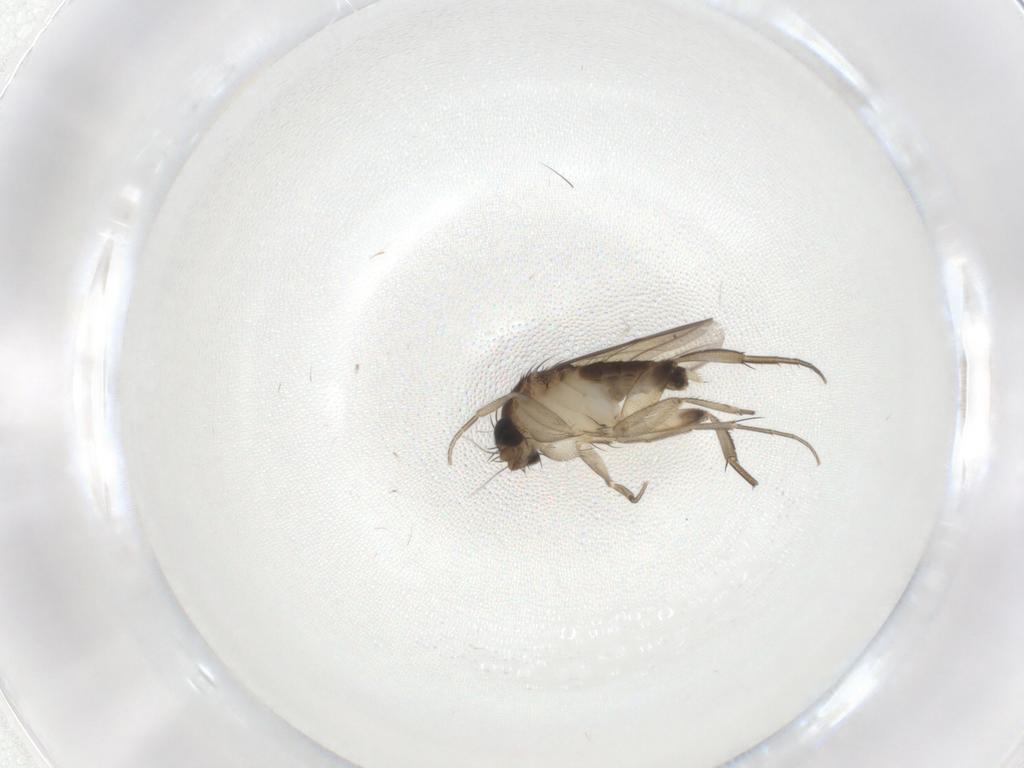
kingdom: Animalia
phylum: Arthropoda
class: Insecta
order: Diptera
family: Phoridae
